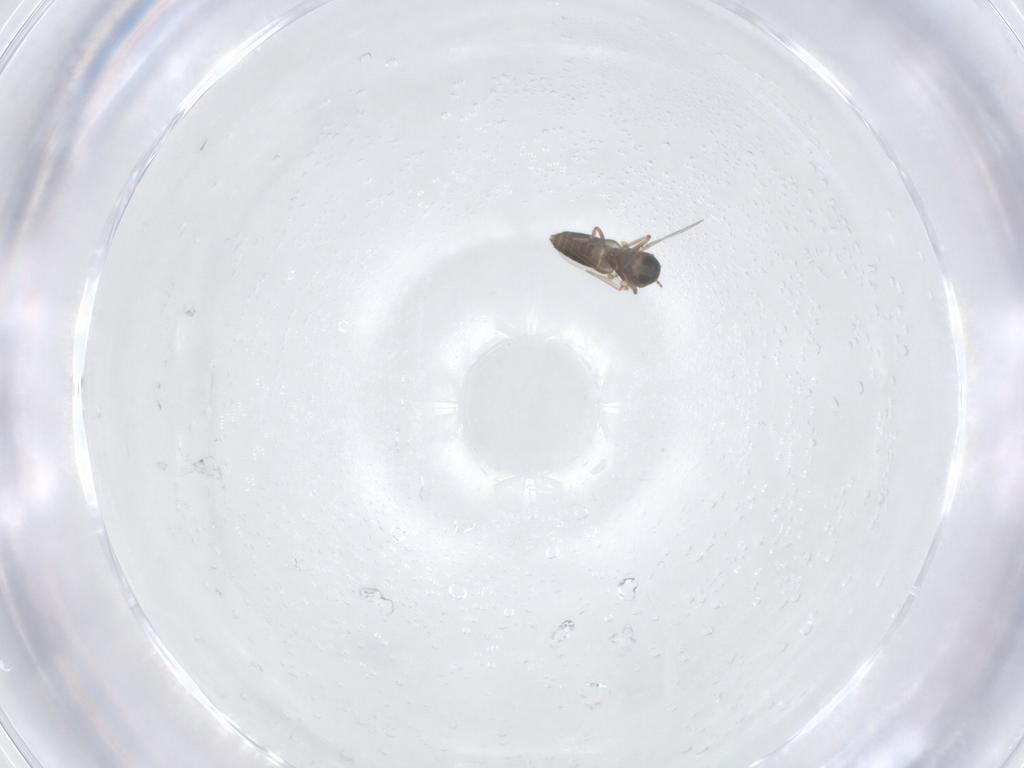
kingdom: Animalia
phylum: Arthropoda
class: Insecta
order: Diptera
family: Ceratopogonidae
